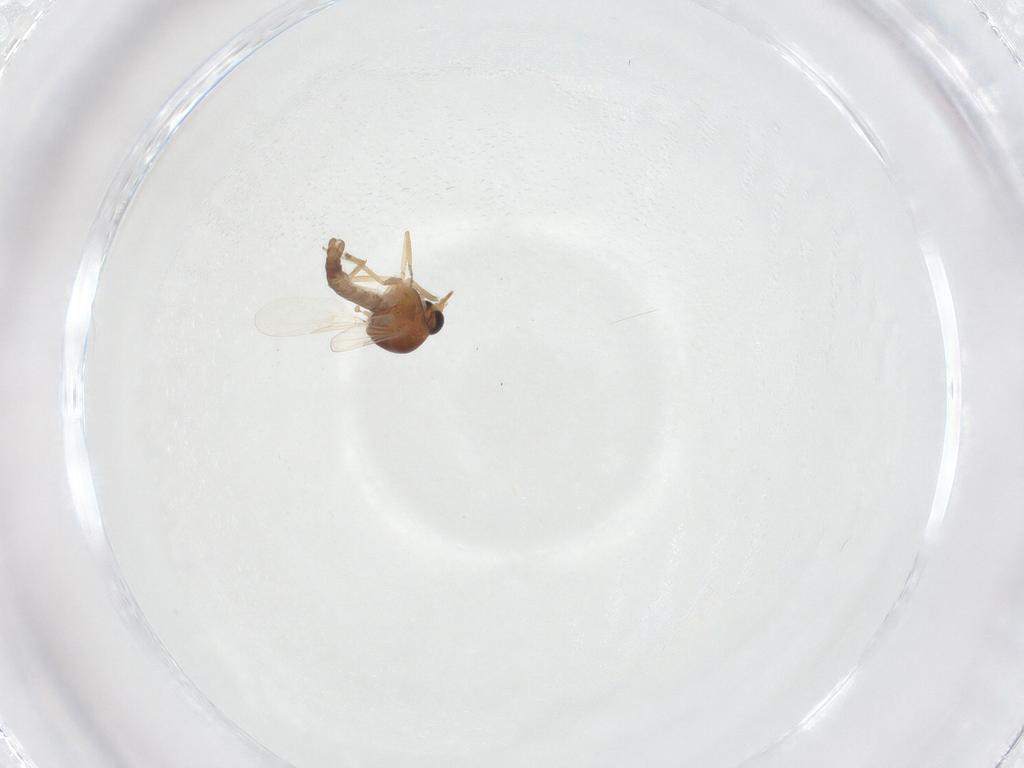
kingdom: Animalia
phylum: Arthropoda
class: Insecta
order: Diptera
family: Ceratopogonidae
